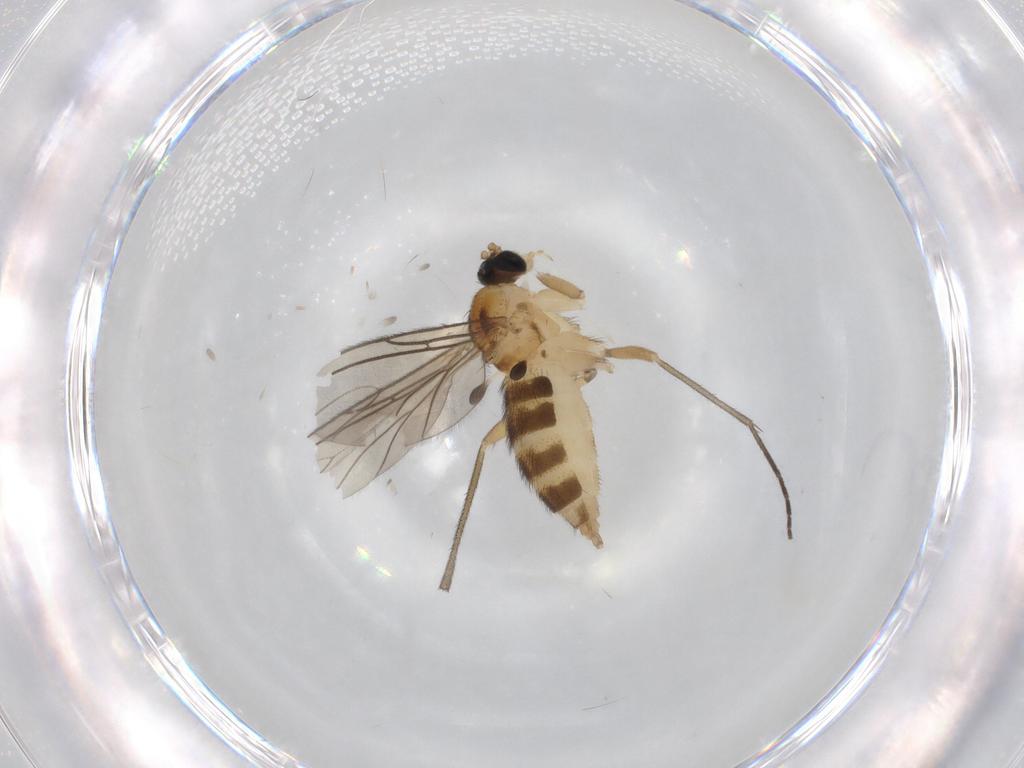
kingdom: Animalia
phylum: Arthropoda
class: Insecta
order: Diptera
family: Sciaridae
